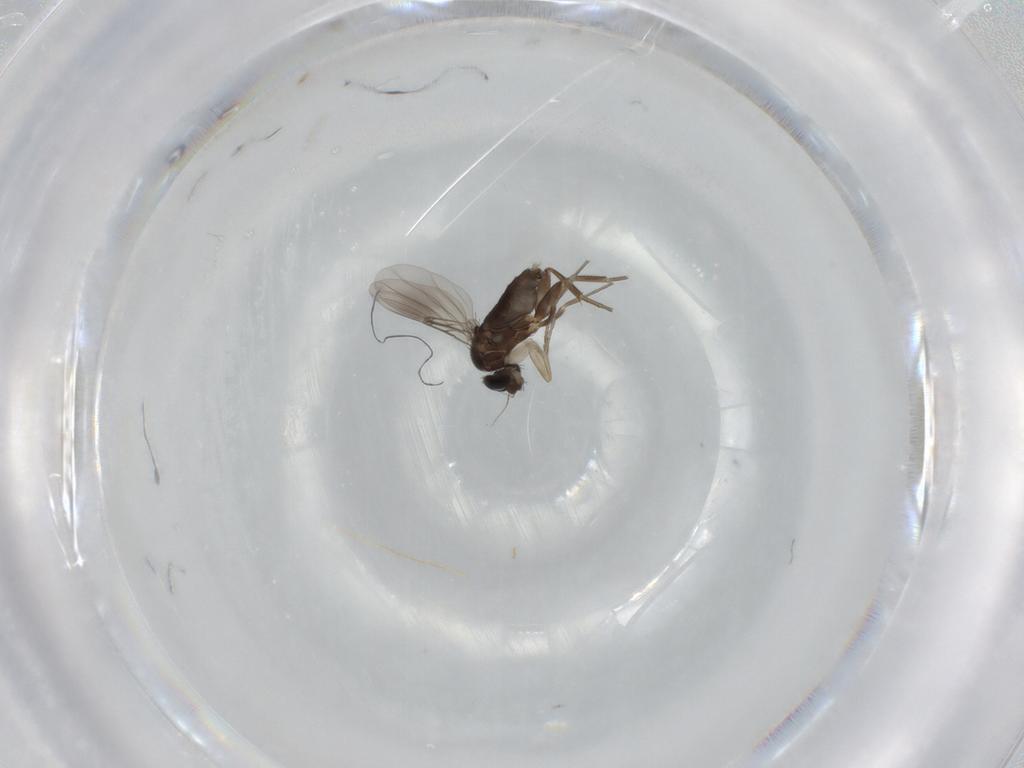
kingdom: Animalia
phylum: Arthropoda
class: Insecta
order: Diptera
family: Phoridae
